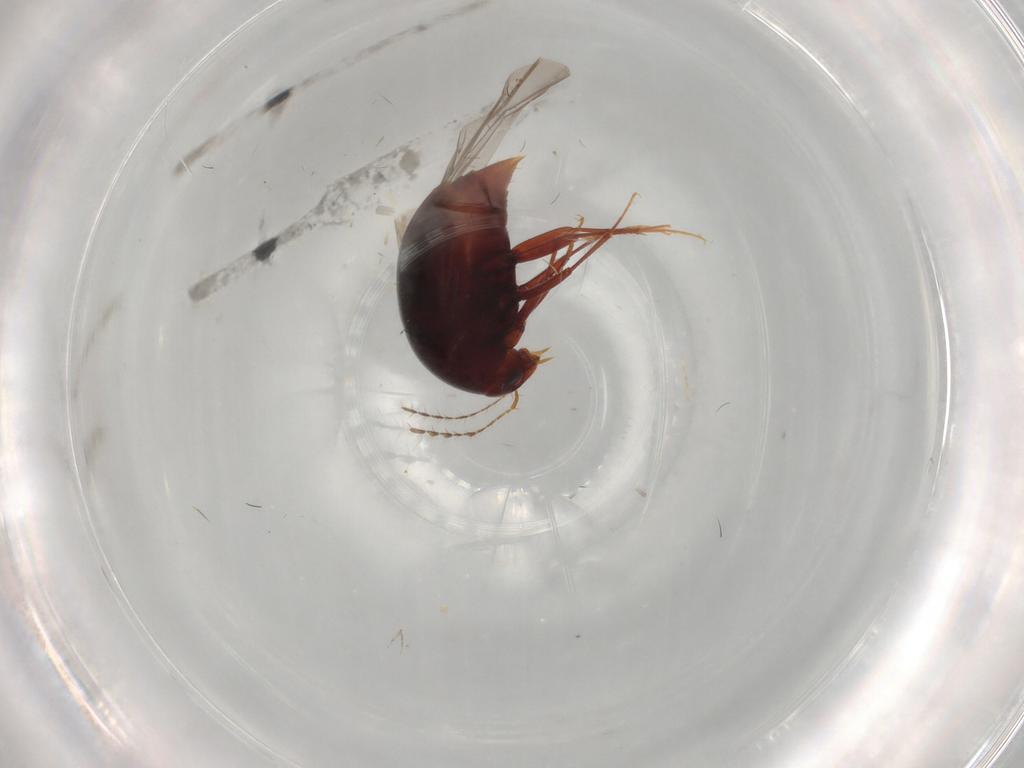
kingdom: Animalia
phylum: Arthropoda
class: Insecta
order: Coleoptera
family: Staphylinidae
